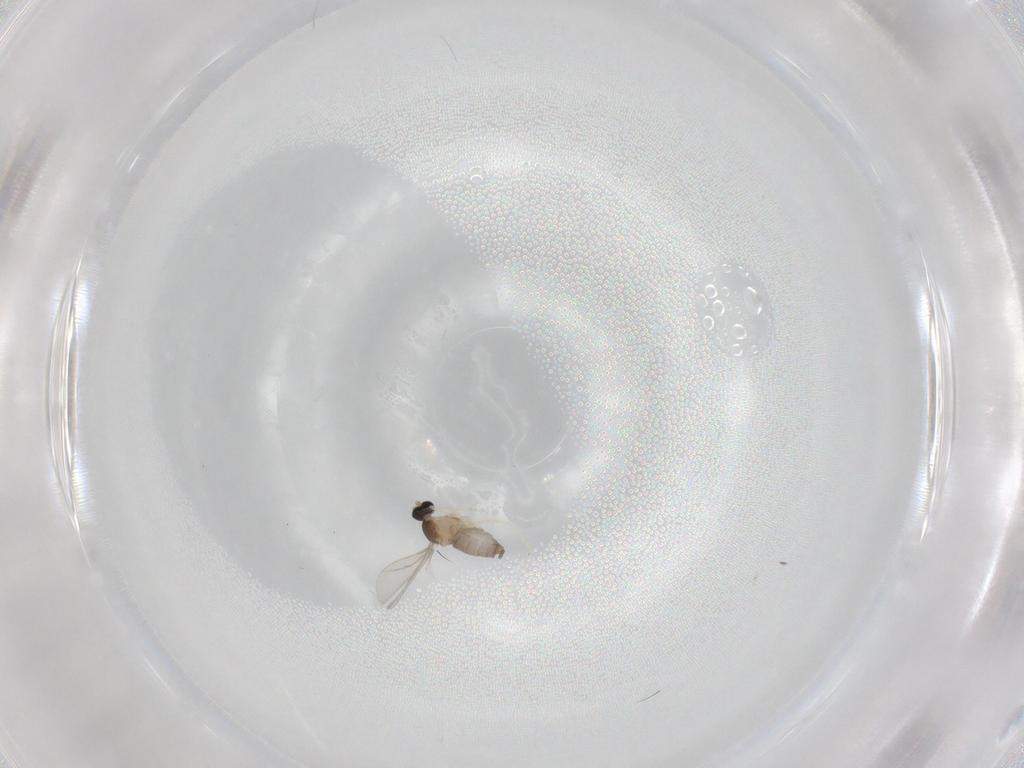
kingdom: Animalia
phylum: Arthropoda
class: Insecta
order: Diptera
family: Cecidomyiidae
